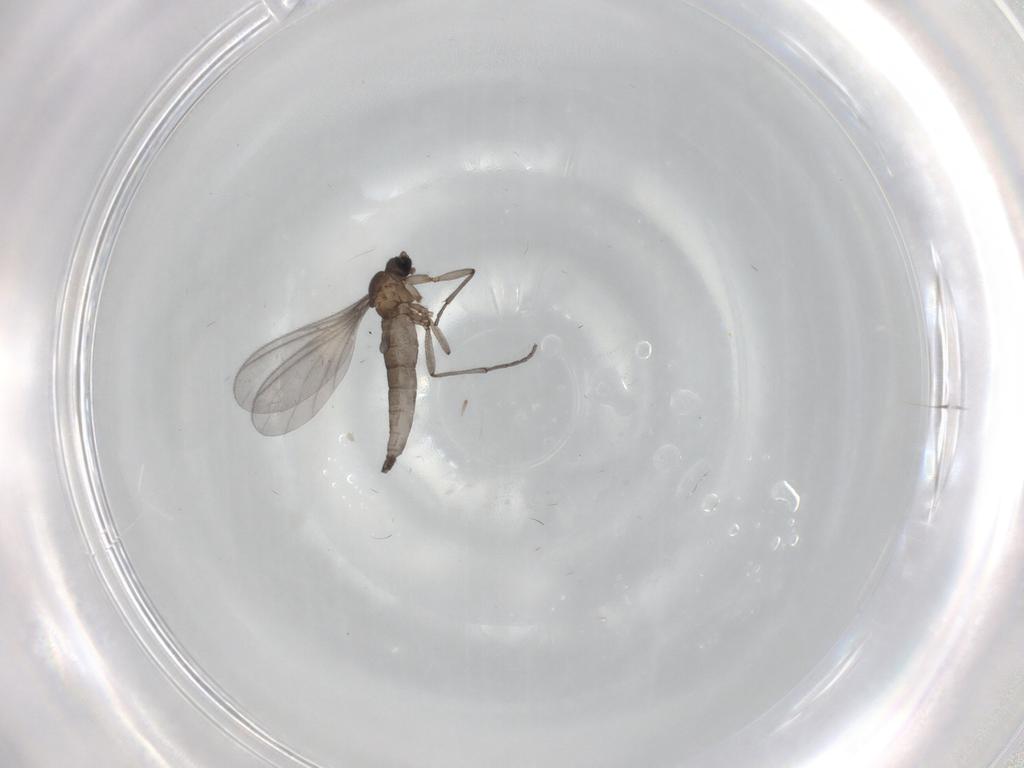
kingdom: Animalia
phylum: Arthropoda
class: Insecta
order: Diptera
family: Sciaridae
